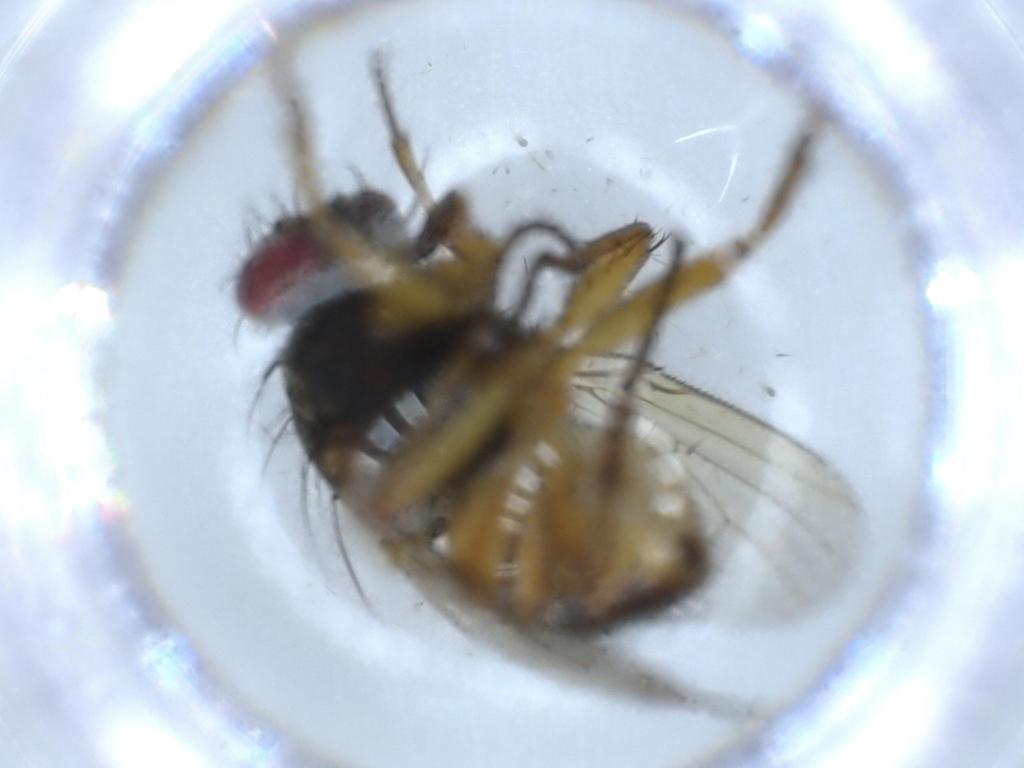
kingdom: Animalia
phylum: Arthropoda
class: Insecta
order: Diptera
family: Muscidae
